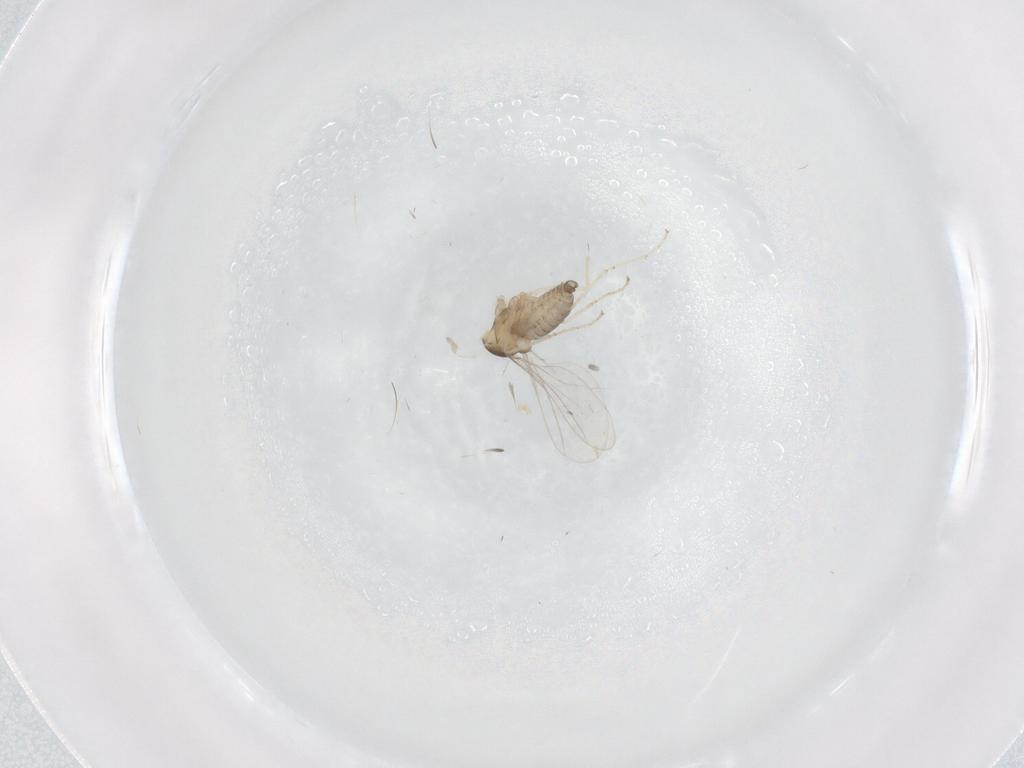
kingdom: Animalia
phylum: Arthropoda
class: Insecta
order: Diptera
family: Cecidomyiidae
